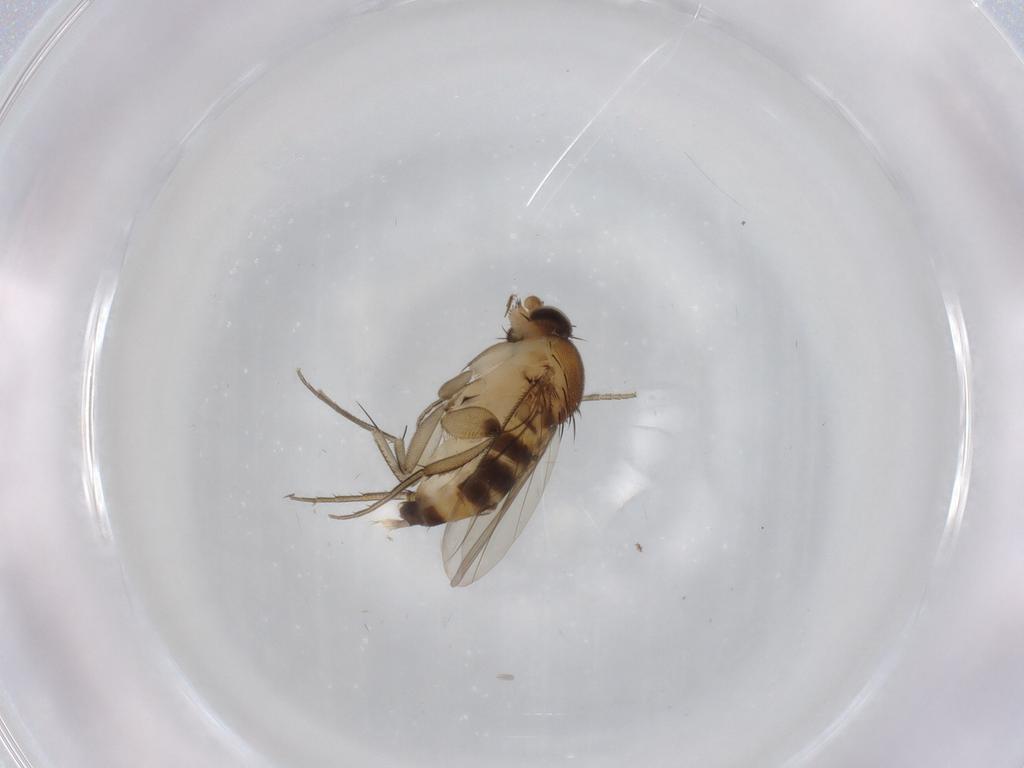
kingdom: Animalia
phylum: Arthropoda
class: Insecta
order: Diptera
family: Phoridae
